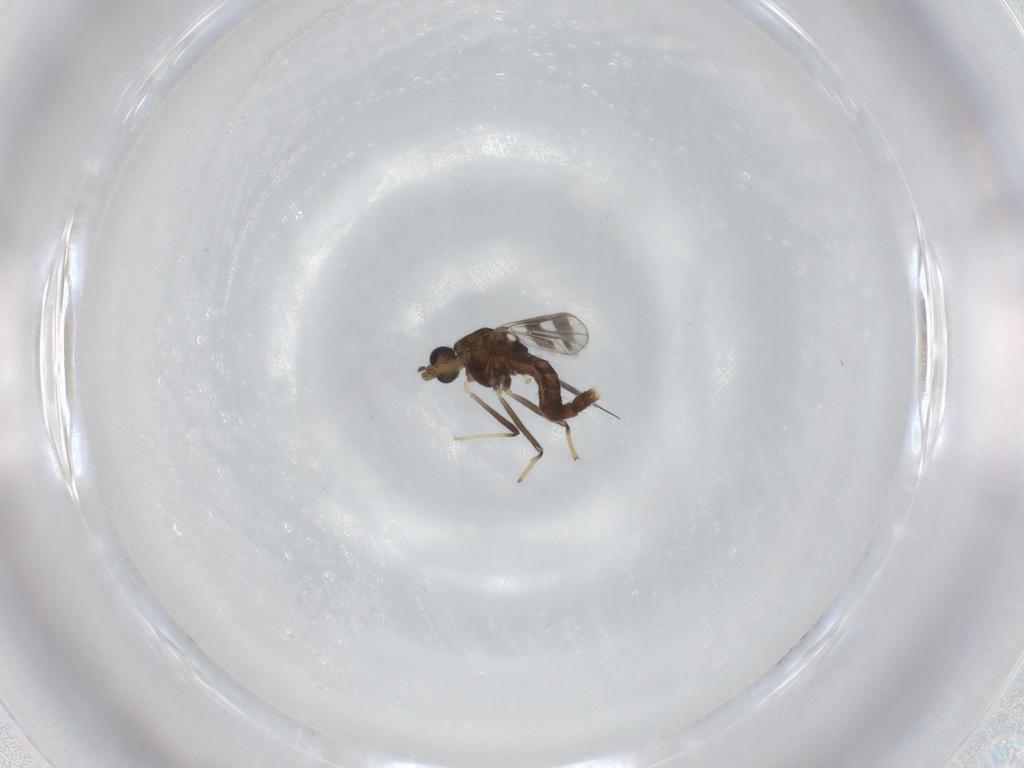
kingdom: Animalia
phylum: Arthropoda
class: Insecta
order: Diptera
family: Chironomidae
